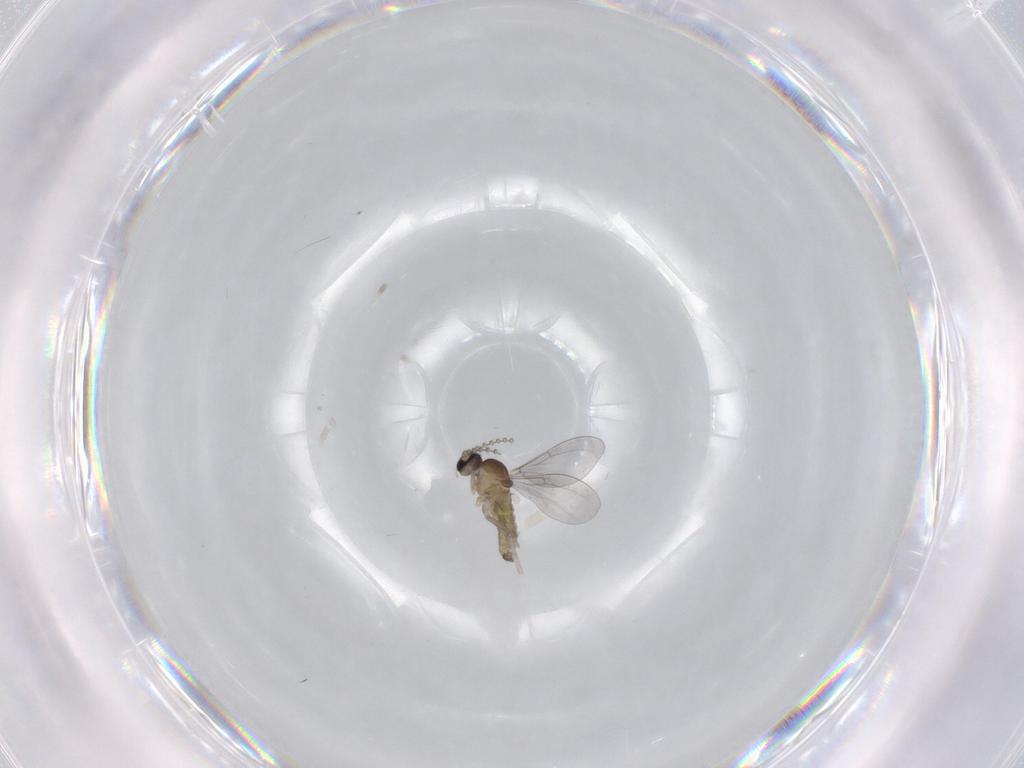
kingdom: Animalia
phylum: Arthropoda
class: Insecta
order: Diptera
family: Cecidomyiidae
